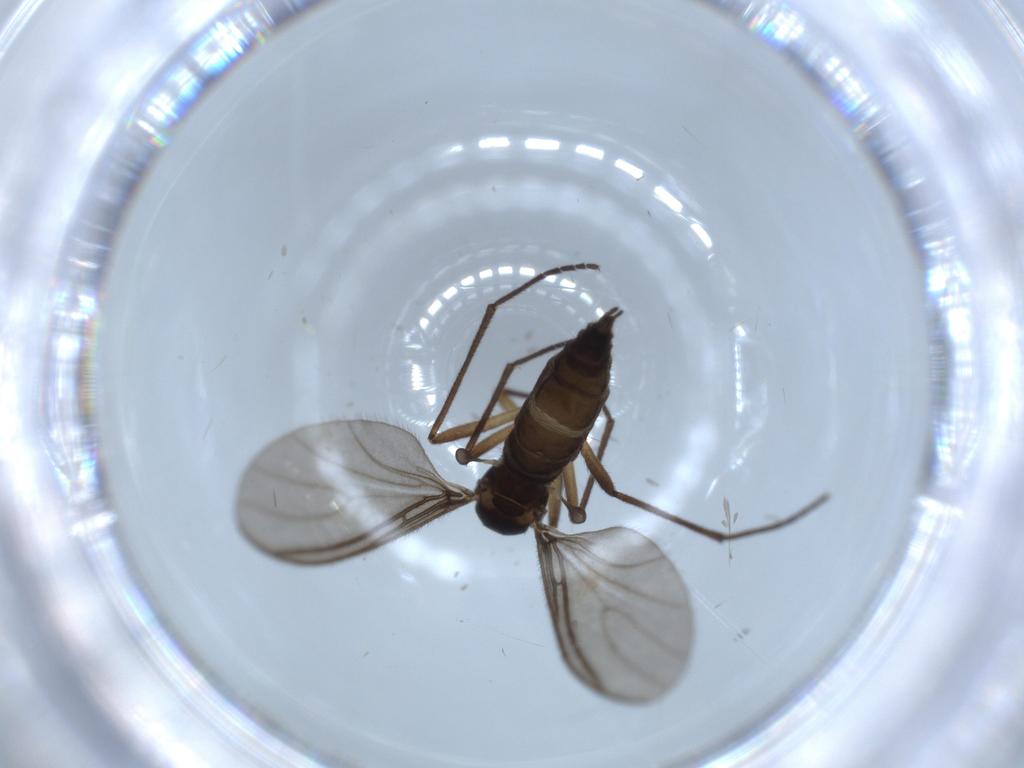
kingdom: Animalia
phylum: Arthropoda
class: Insecta
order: Diptera
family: Sciaridae
